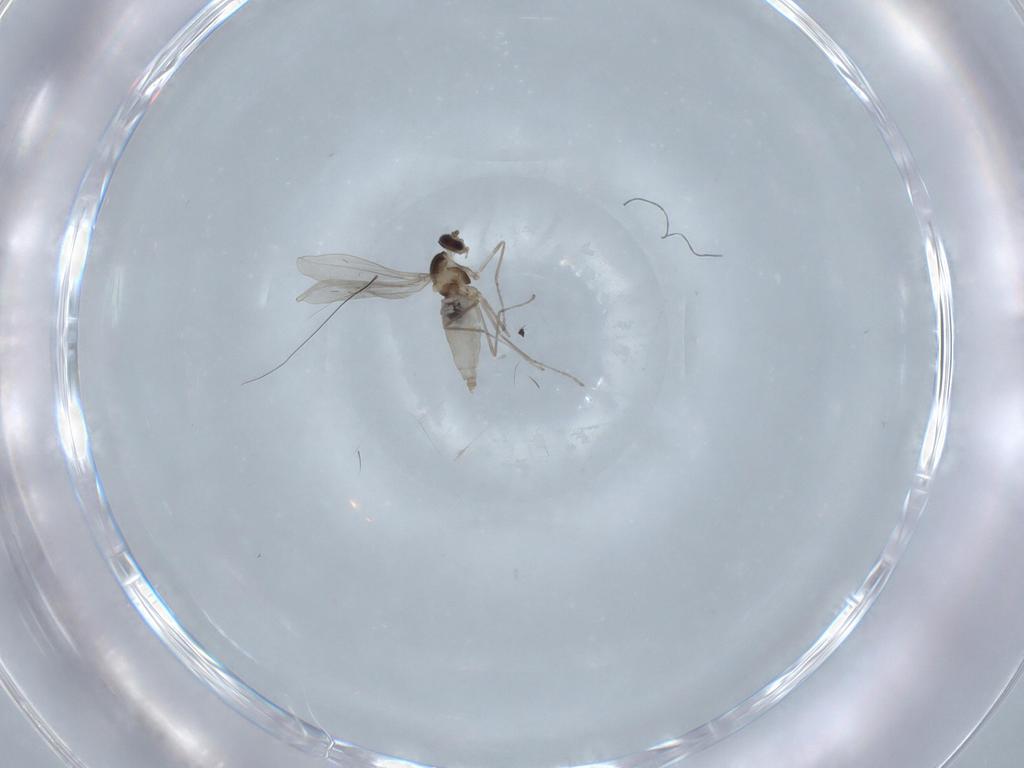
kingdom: Animalia
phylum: Arthropoda
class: Insecta
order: Diptera
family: Cecidomyiidae
